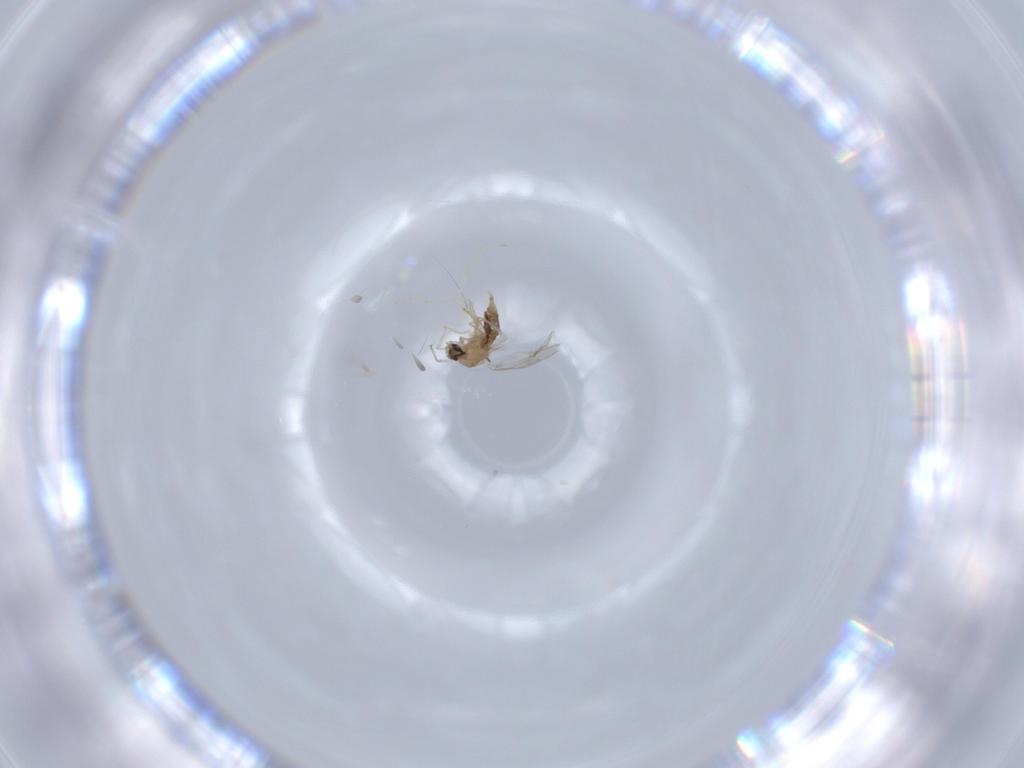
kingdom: Animalia
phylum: Arthropoda
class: Insecta
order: Diptera
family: Cecidomyiidae
